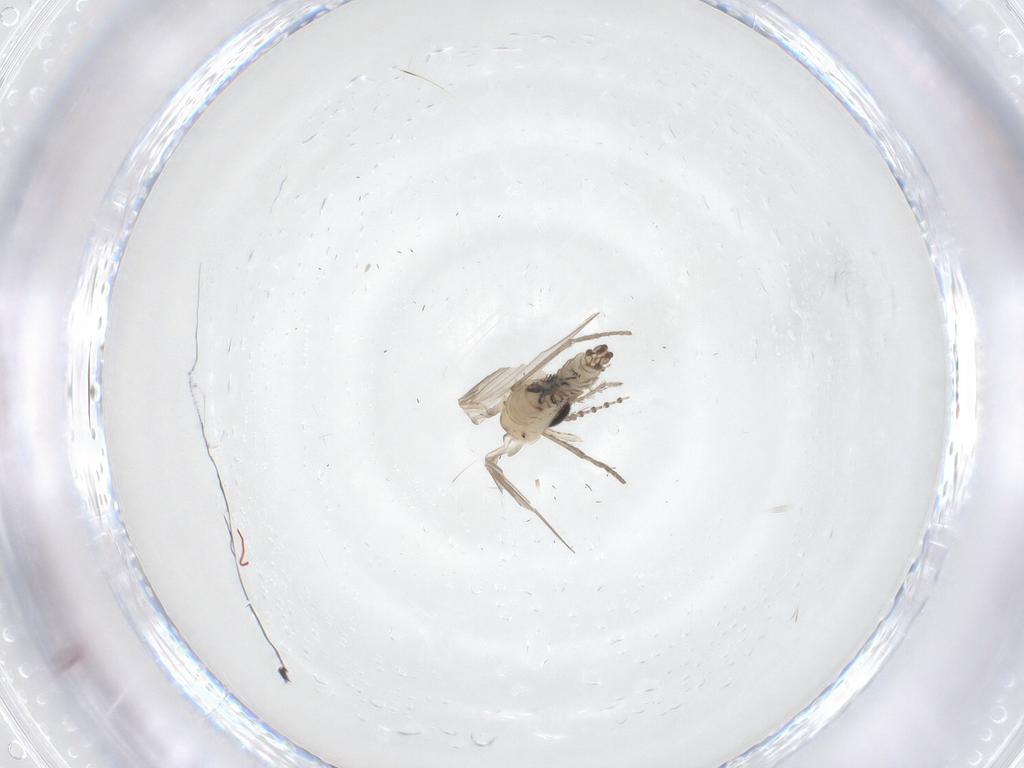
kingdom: Animalia
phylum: Arthropoda
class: Insecta
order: Diptera
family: Psychodidae
